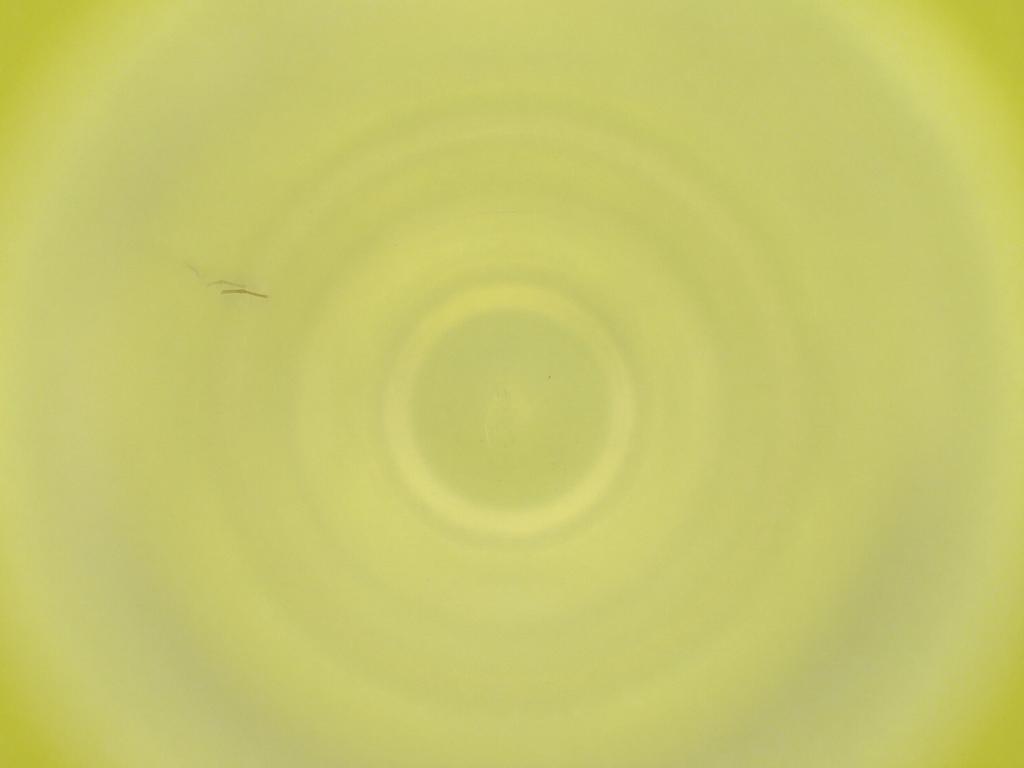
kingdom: Animalia
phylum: Arthropoda
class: Insecta
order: Diptera
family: Cecidomyiidae
